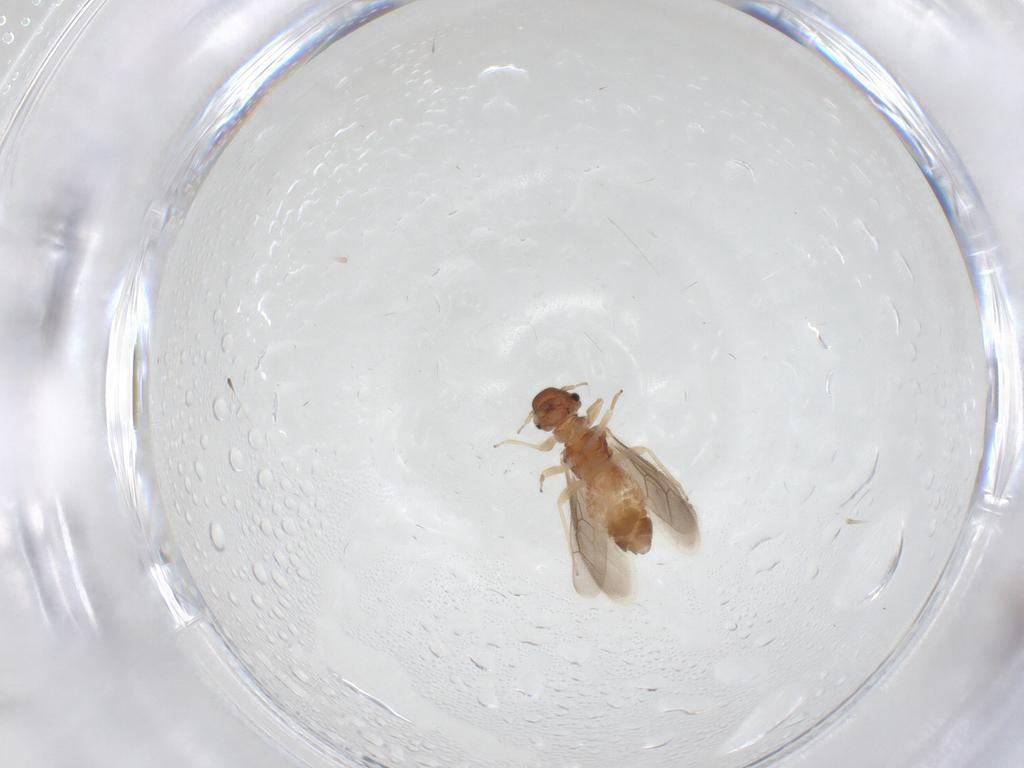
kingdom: Animalia
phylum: Arthropoda
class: Insecta
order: Psocodea
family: Archipsocidae
